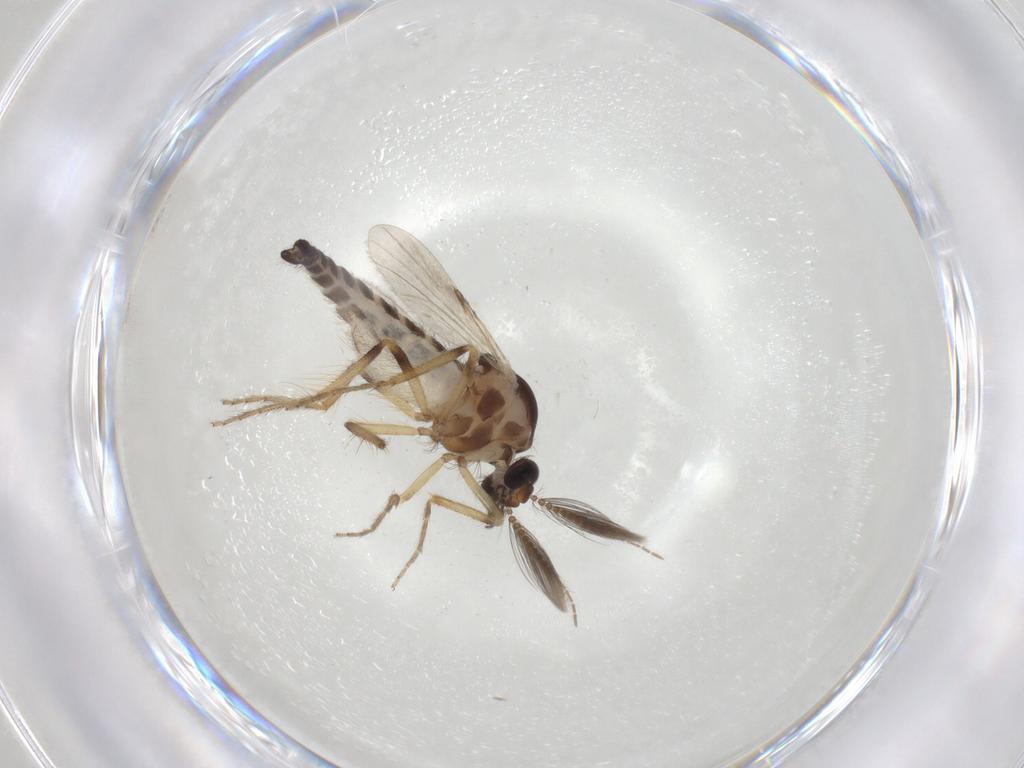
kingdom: Animalia
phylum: Arthropoda
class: Insecta
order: Diptera
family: Ceratopogonidae
